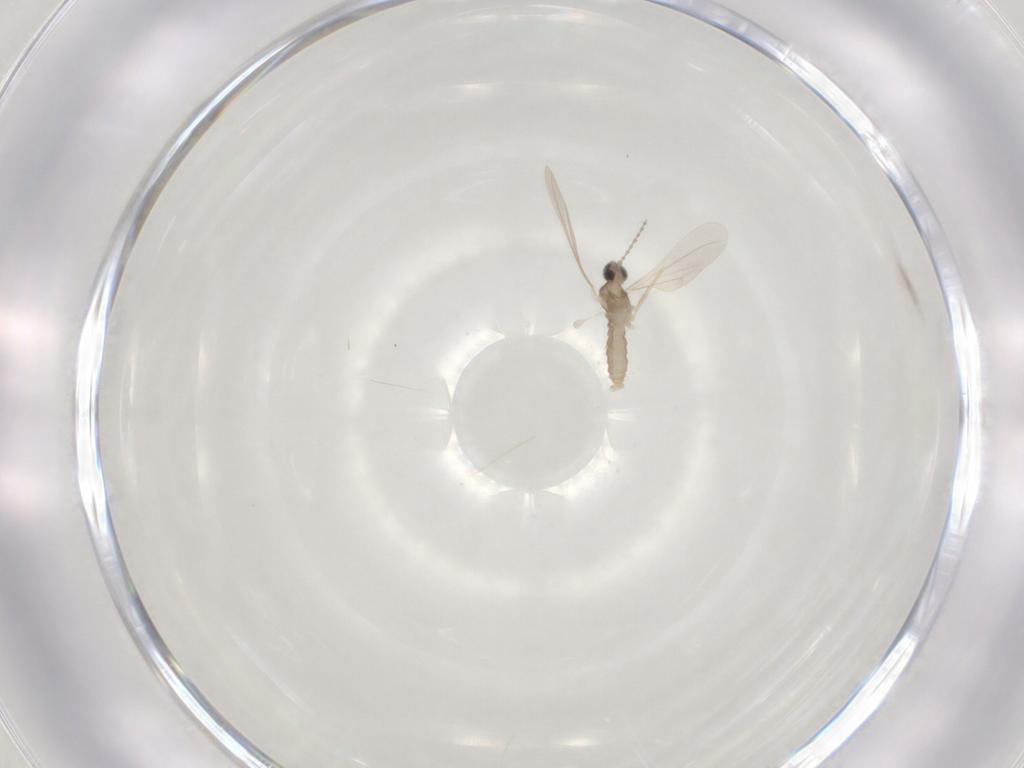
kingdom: Animalia
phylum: Arthropoda
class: Insecta
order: Diptera
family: Cecidomyiidae
